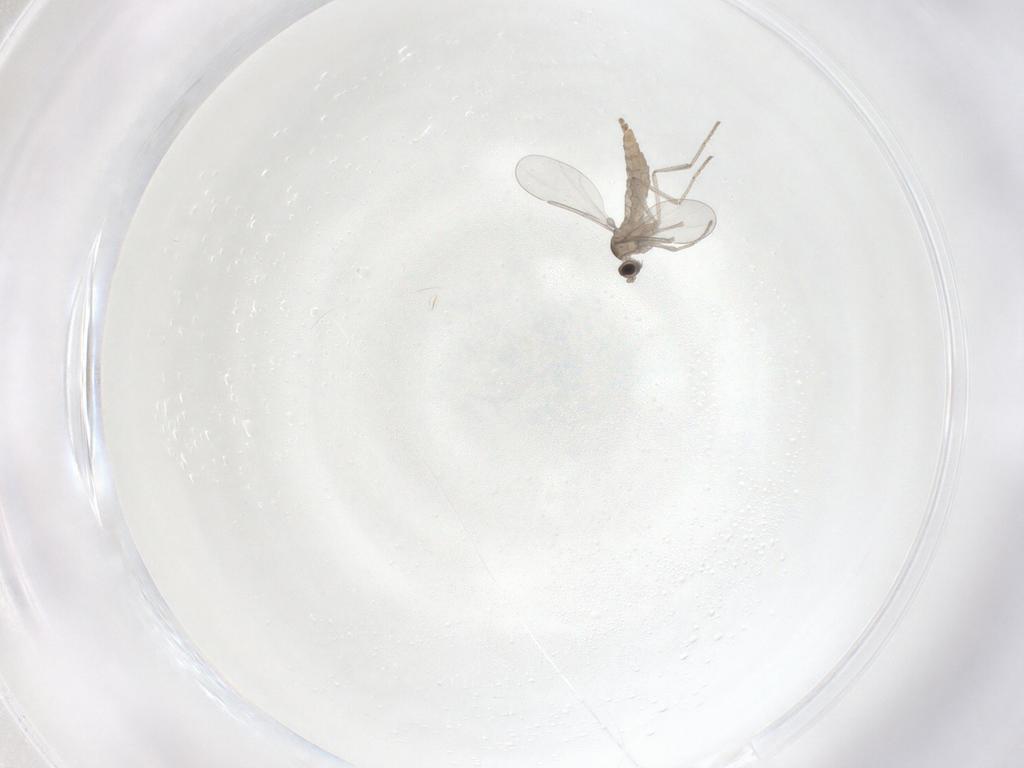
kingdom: Animalia
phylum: Arthropoda
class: Insecta
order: Diptera
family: Cecidomyiidae
